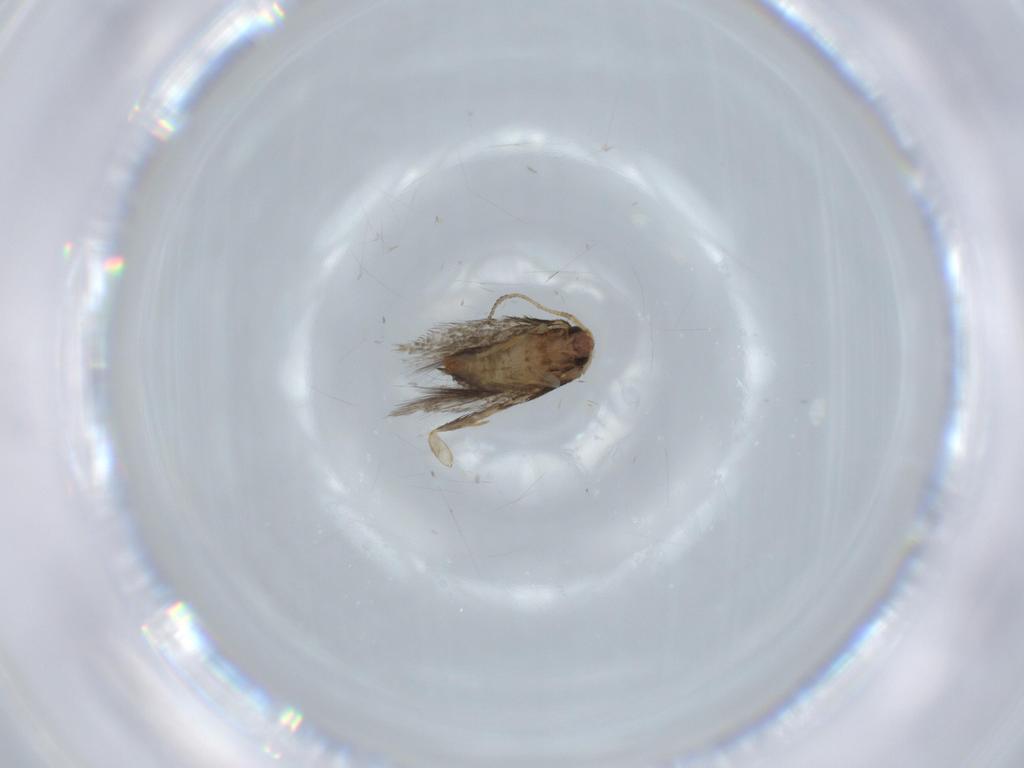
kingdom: Animalia
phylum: Arthropoda
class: Insecta
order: Lepidoptera
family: Nepticulidae
